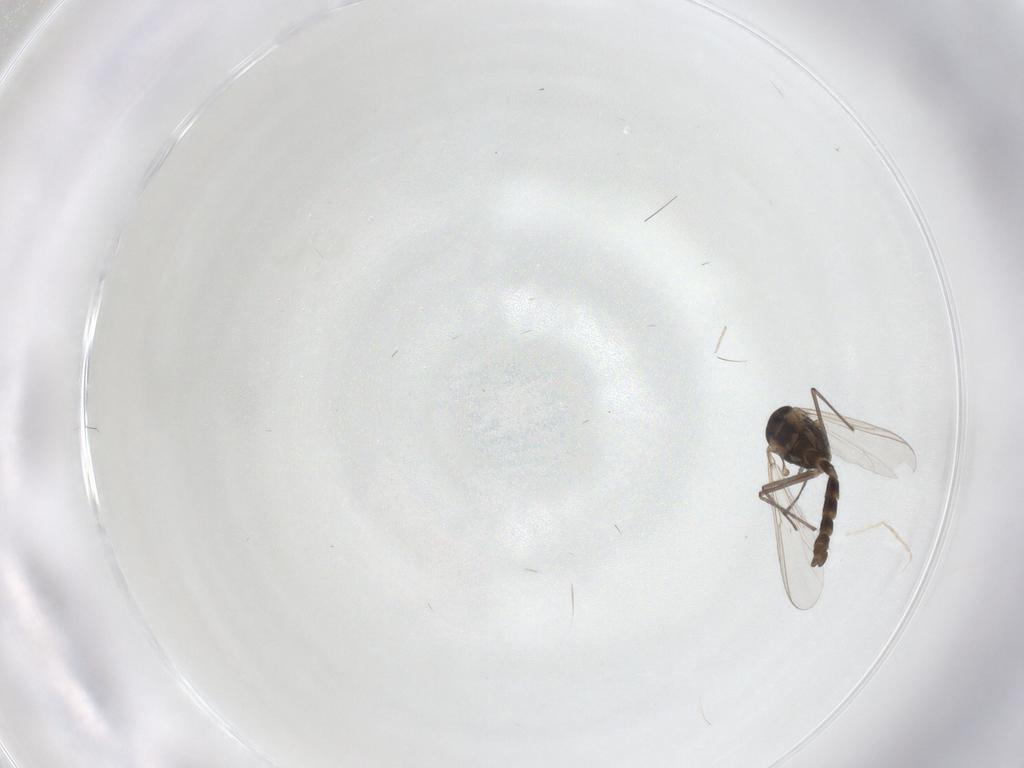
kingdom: Animalia
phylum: Arthropoda
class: Insecta
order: Diptera
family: Chironomidae
